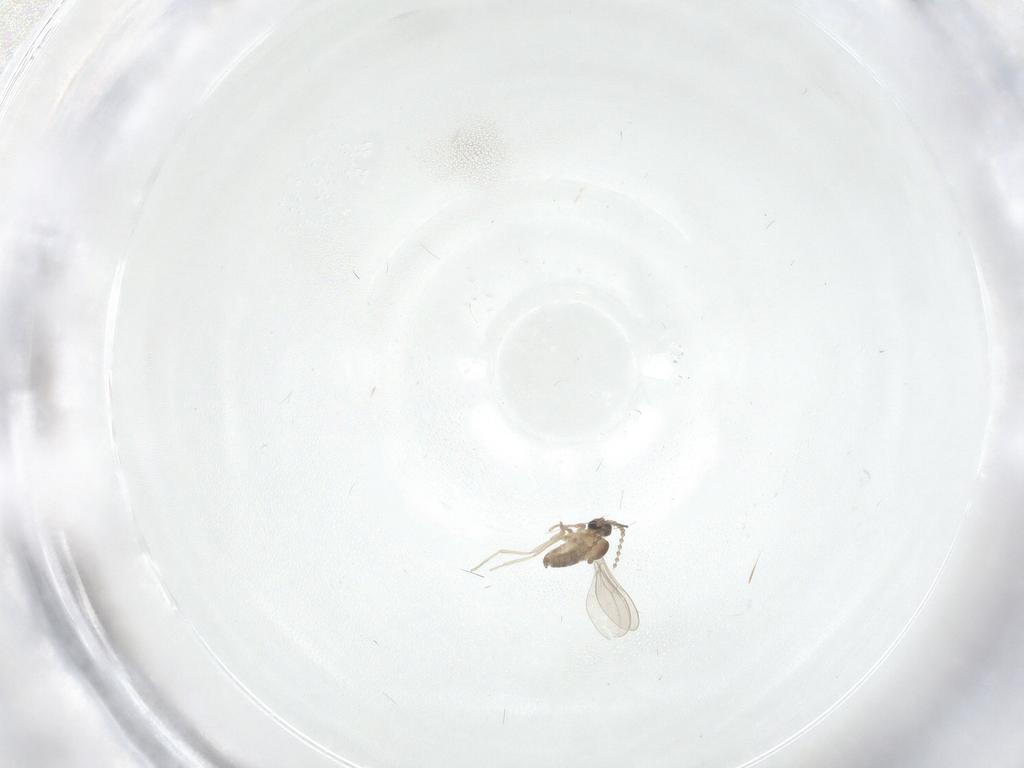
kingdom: Animalia
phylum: Arthropoda
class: Insecta
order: Diptera
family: Cecidomyiidae
